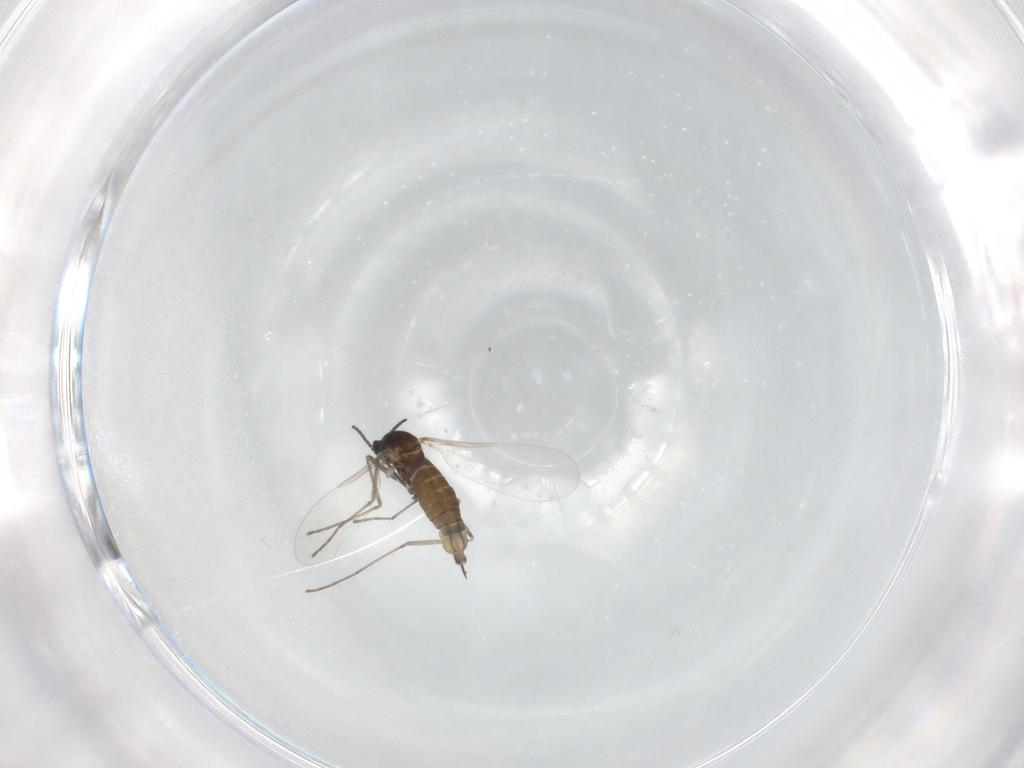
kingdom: Animalia
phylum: Arthropoda
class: Insecta
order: Diptera
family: Cecidomyiidae
